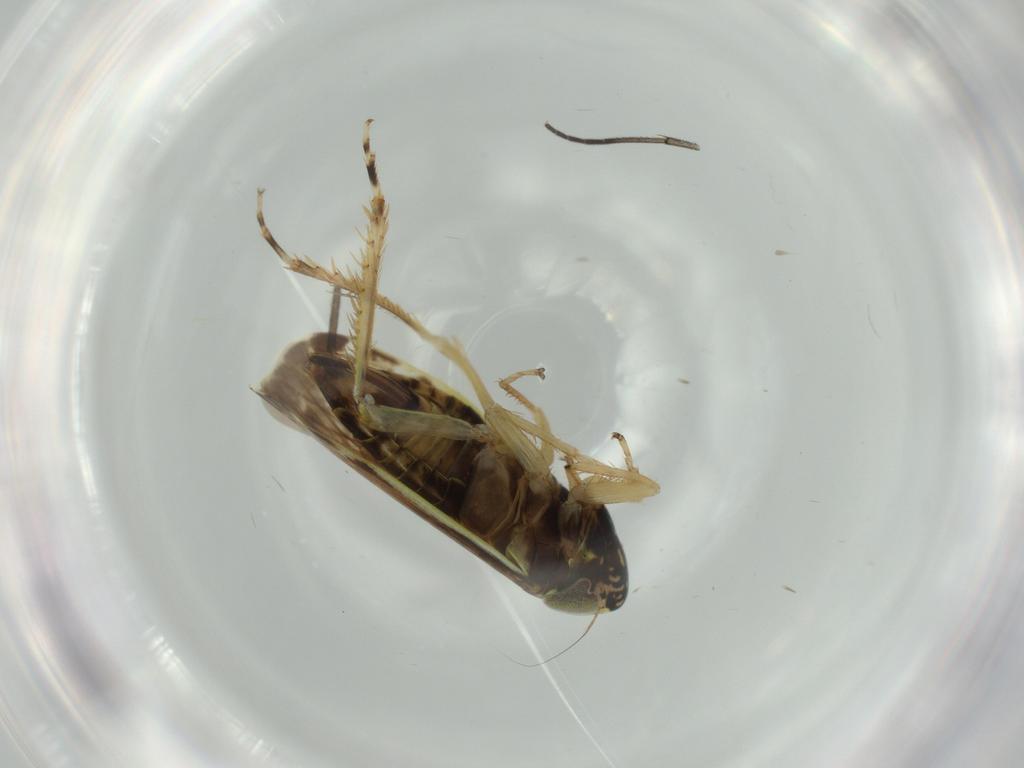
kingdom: Animalia
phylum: Arthropoda
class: Insecta
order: Hemiptera
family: Cicadellidae
